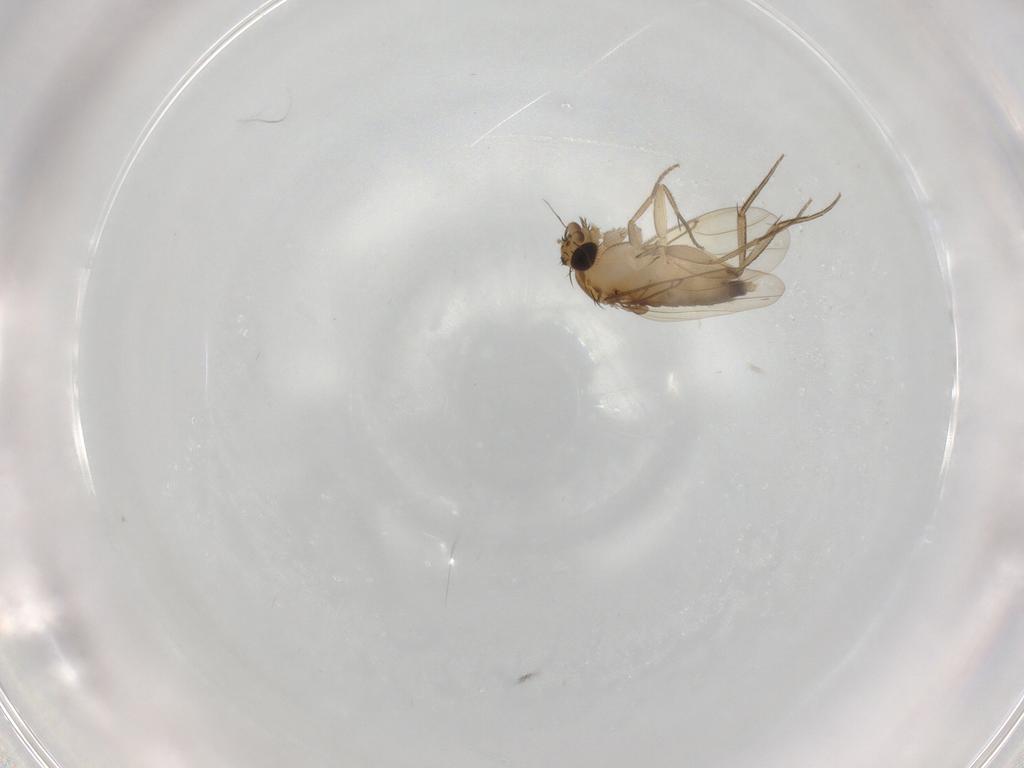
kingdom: Animalia
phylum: Arthropoda
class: Insecta
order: Diptera
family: Phoridae
